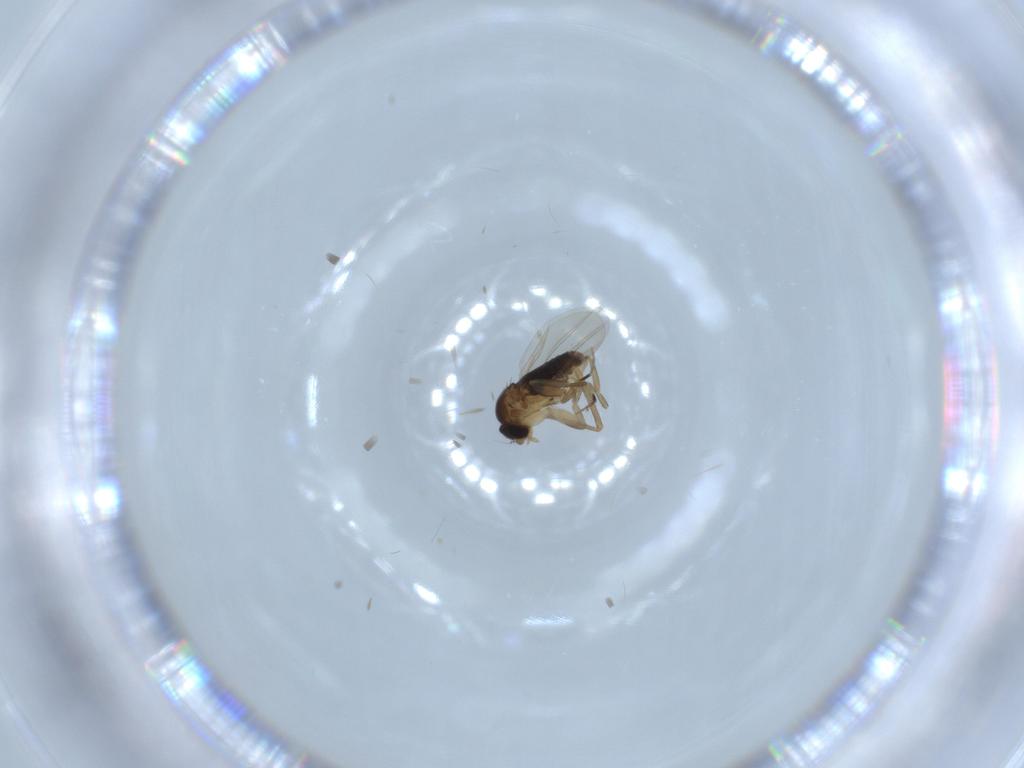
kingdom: Animalia
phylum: Arthropoda
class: Insecta
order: Diptera
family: Phoridae
